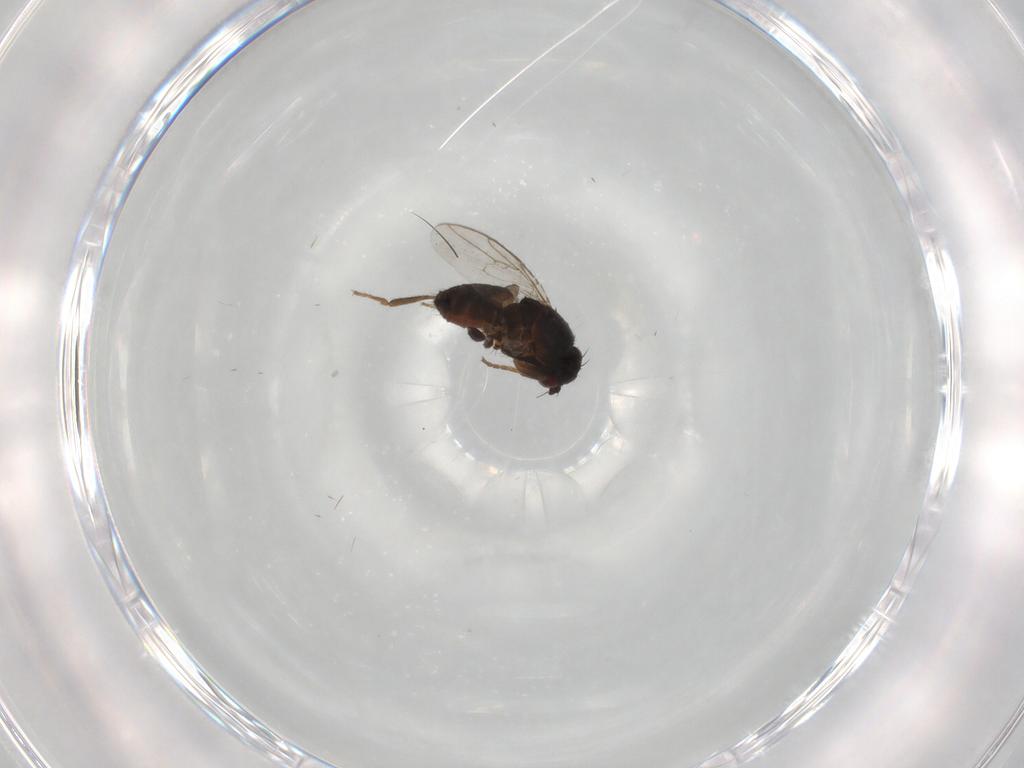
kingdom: Animalia
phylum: Arthropoda
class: Insecta
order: Diptera
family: Sphaeroceridae
